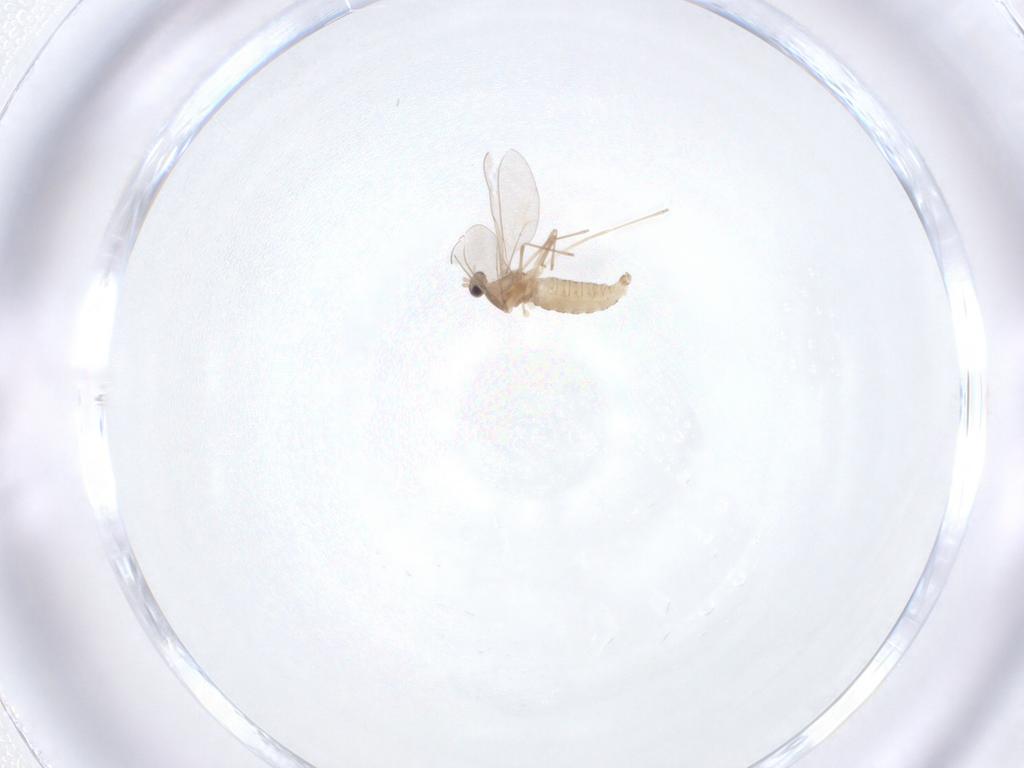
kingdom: Animalia
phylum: Arthropoda
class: Insecta
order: Diptera
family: Cecidomyiidae
